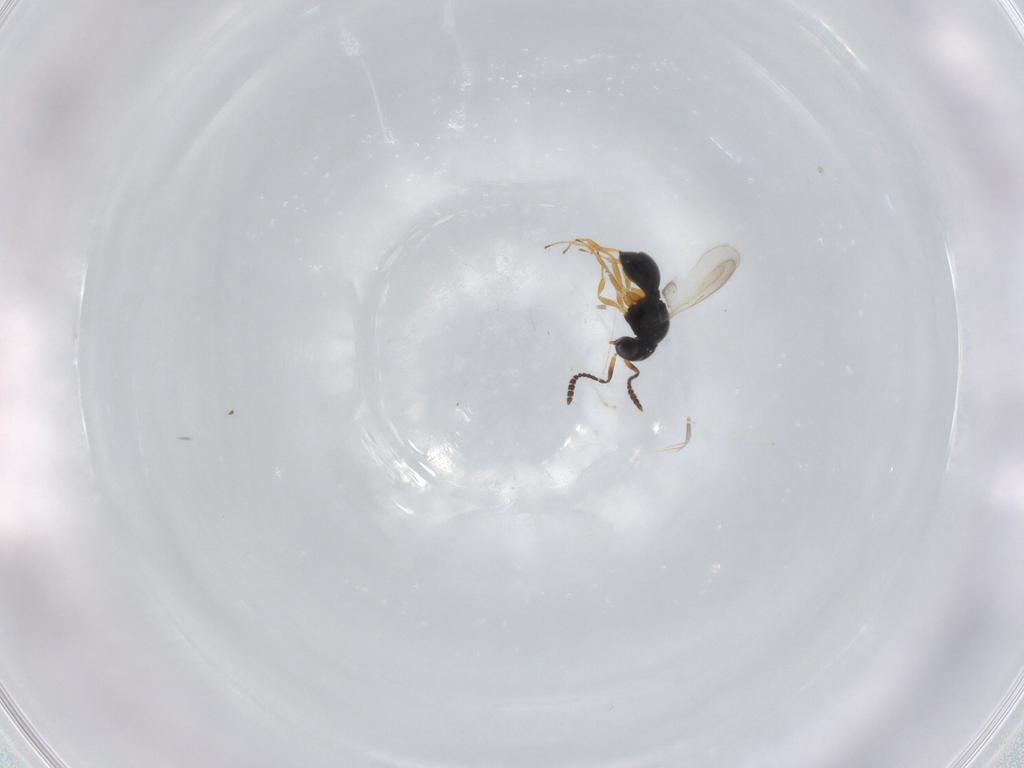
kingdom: Animalia
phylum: Arthropoda
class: Insecta
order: Hymenoptera
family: Scelionidae
